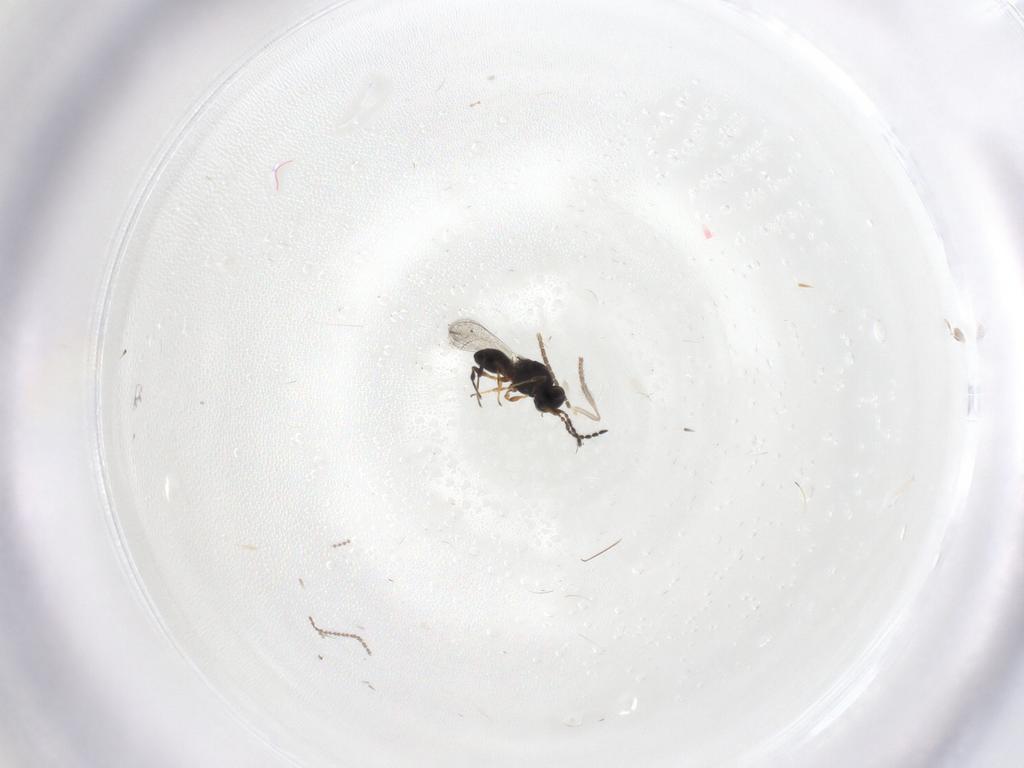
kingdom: Animalia
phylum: Arthropoda
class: Insecta
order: Hymenoptera
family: Platygastridae
